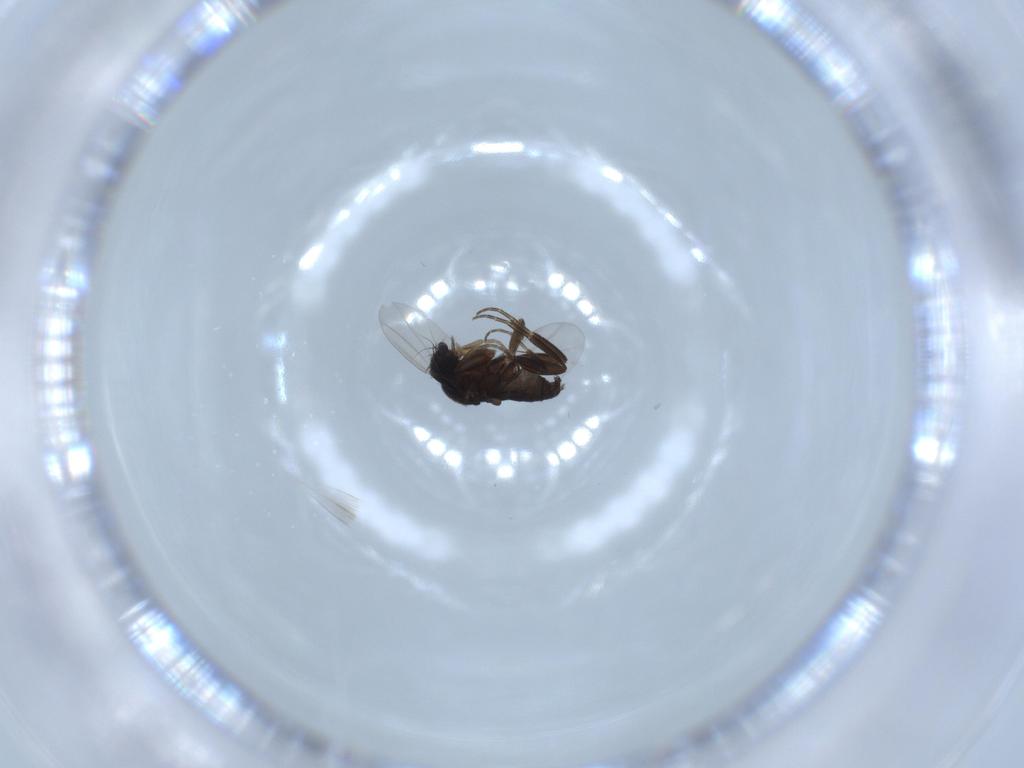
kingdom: Animalia
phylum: Arthropoda
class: Insecta
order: Diptera
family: Phoridae
